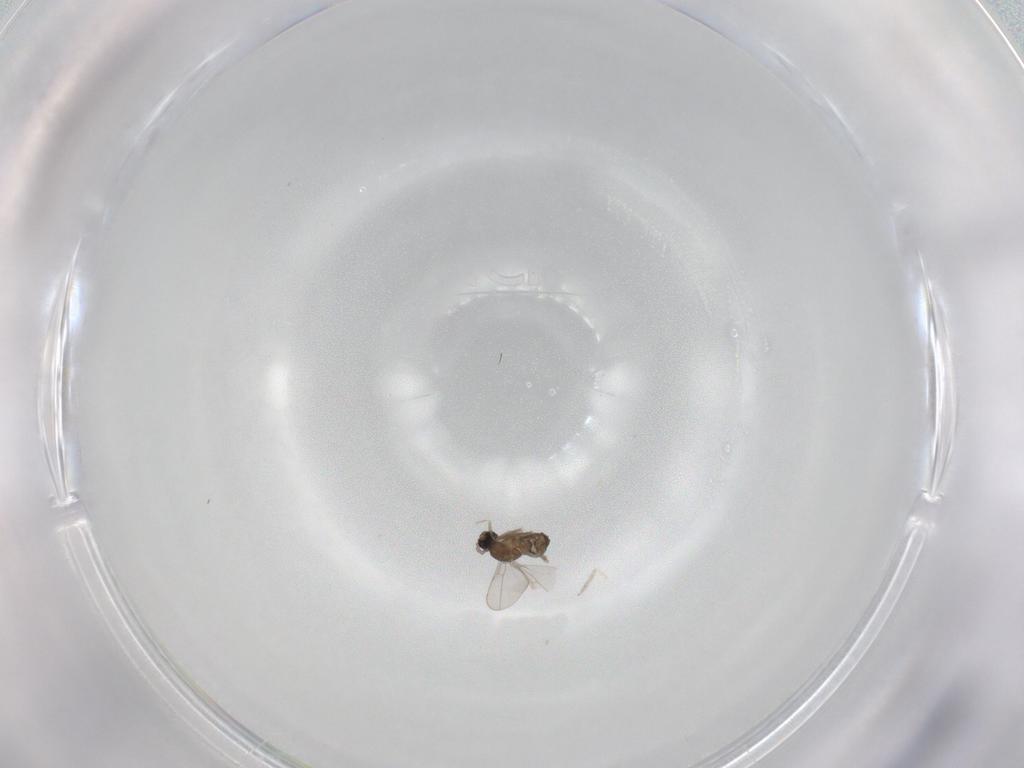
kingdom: Animalia
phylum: Arthropoda
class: Insecta
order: Diptera
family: Cecidomyiidae
